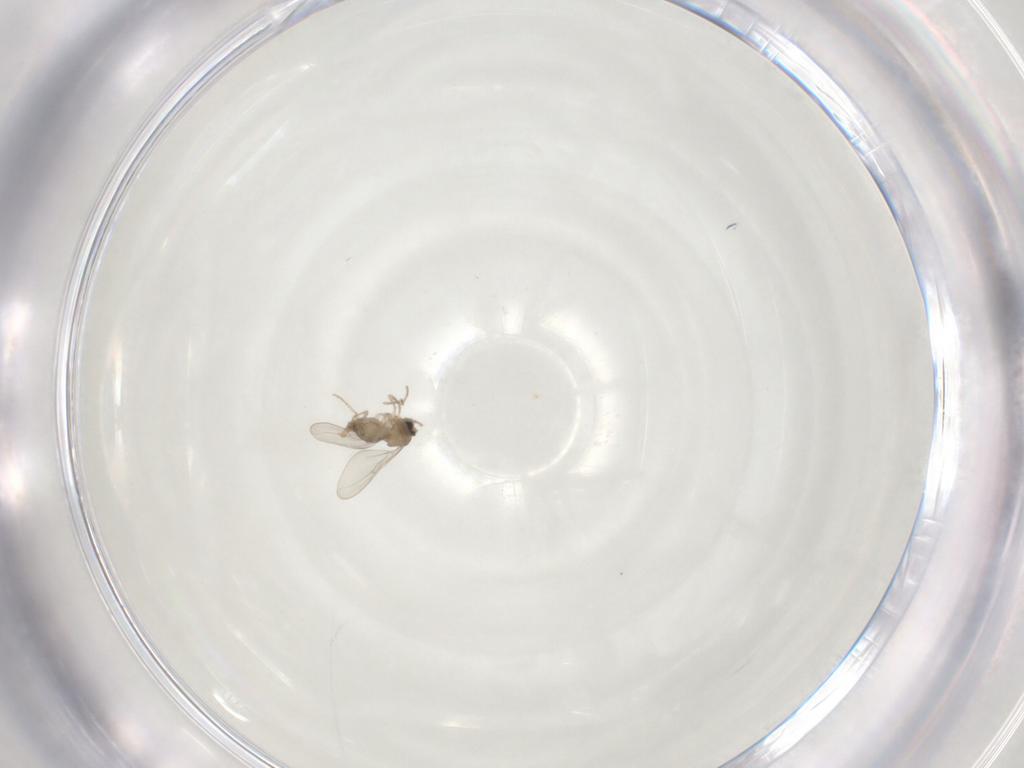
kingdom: Animalia
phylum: Arthropoda
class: Insecta
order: Diptera
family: Cecidomyiidae
